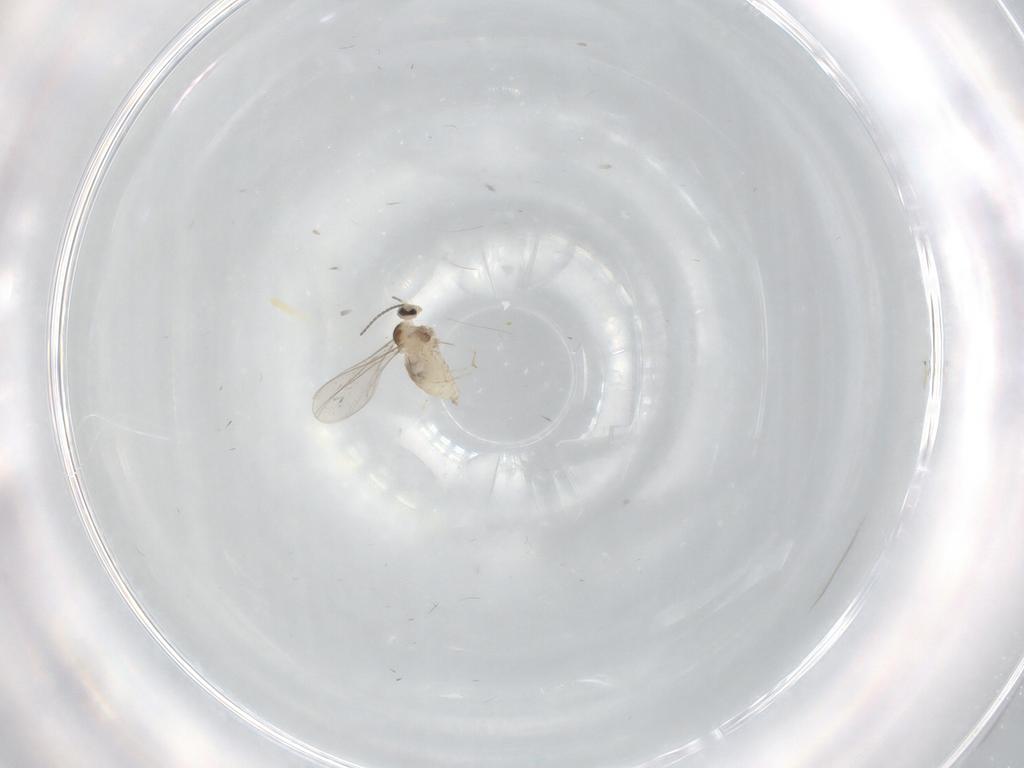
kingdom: Animalia
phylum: Arthropoda
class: Insecta
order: Diptera
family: Cecidomyiidae
